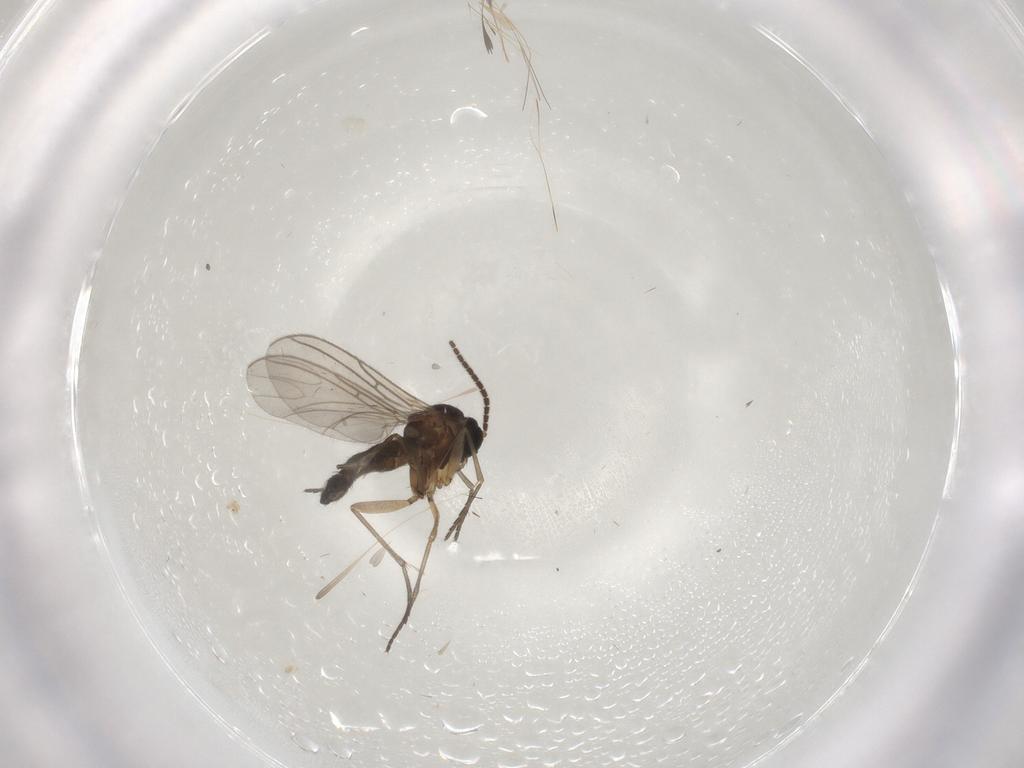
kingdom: Animalia
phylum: Arthropoda
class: Insecta
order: Diptera
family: Sciaridae
